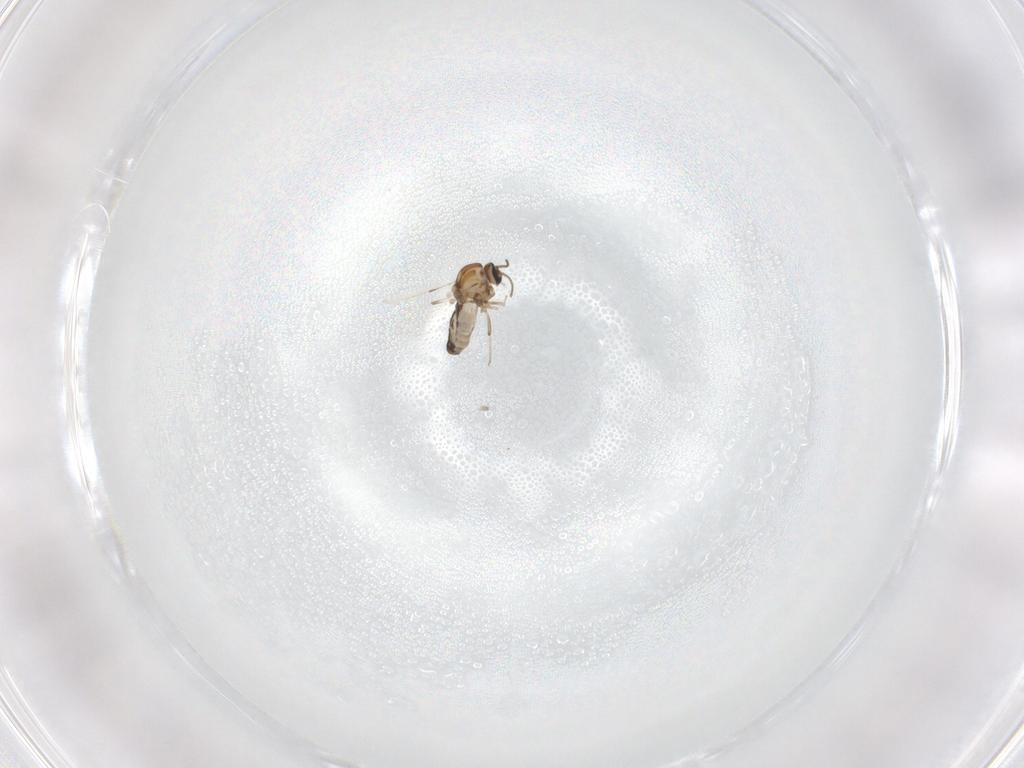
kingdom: Animalia
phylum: Arthropoda
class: Insecta
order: Diptera
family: Ceratopogonidae
